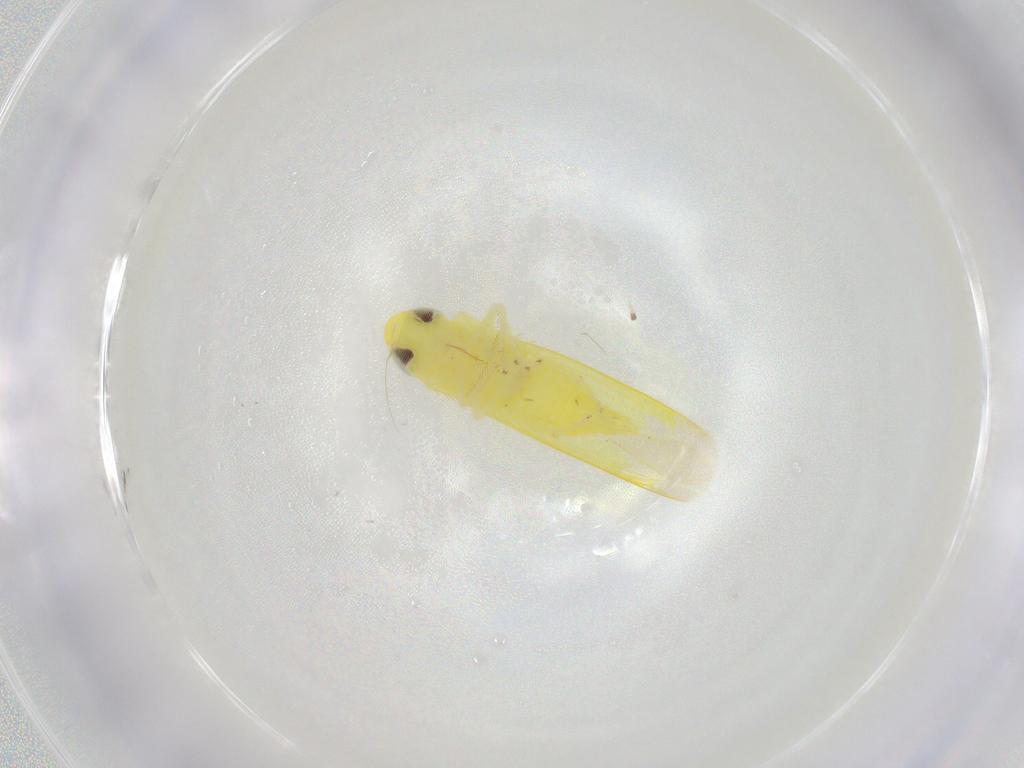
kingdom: Animalia
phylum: Arthropoda
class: Insecta
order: Hemiptera
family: Cicadellidae
